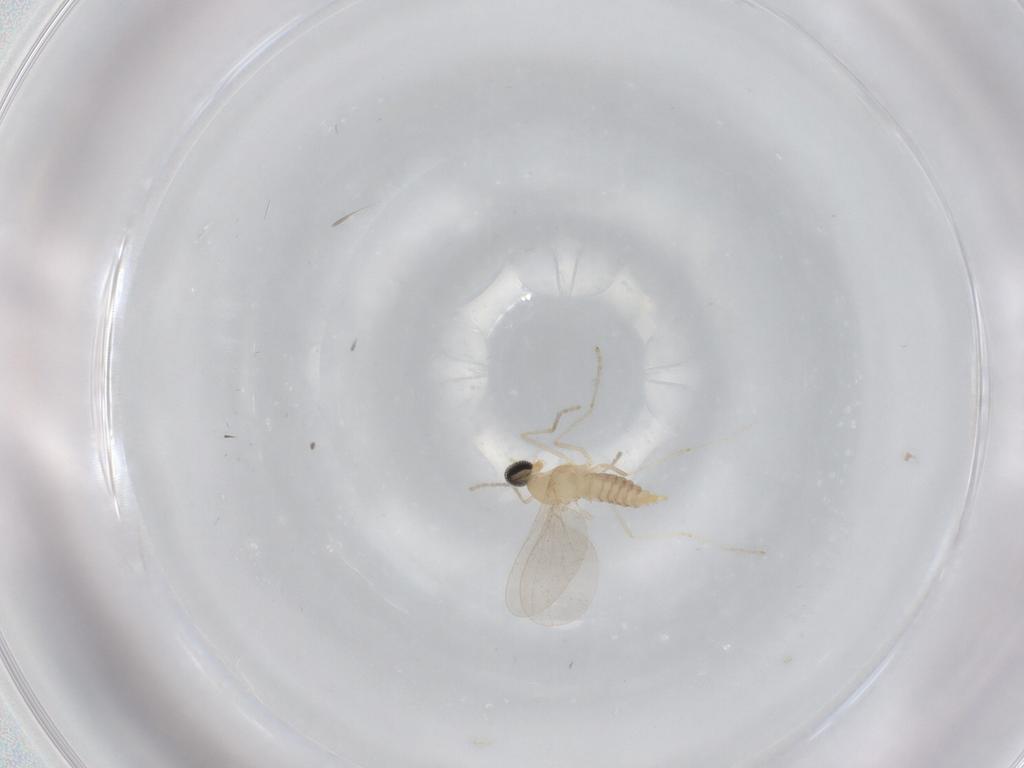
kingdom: Animalia
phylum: Arthropoda
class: Insecta
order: Diptera
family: Cecidomyiidae
